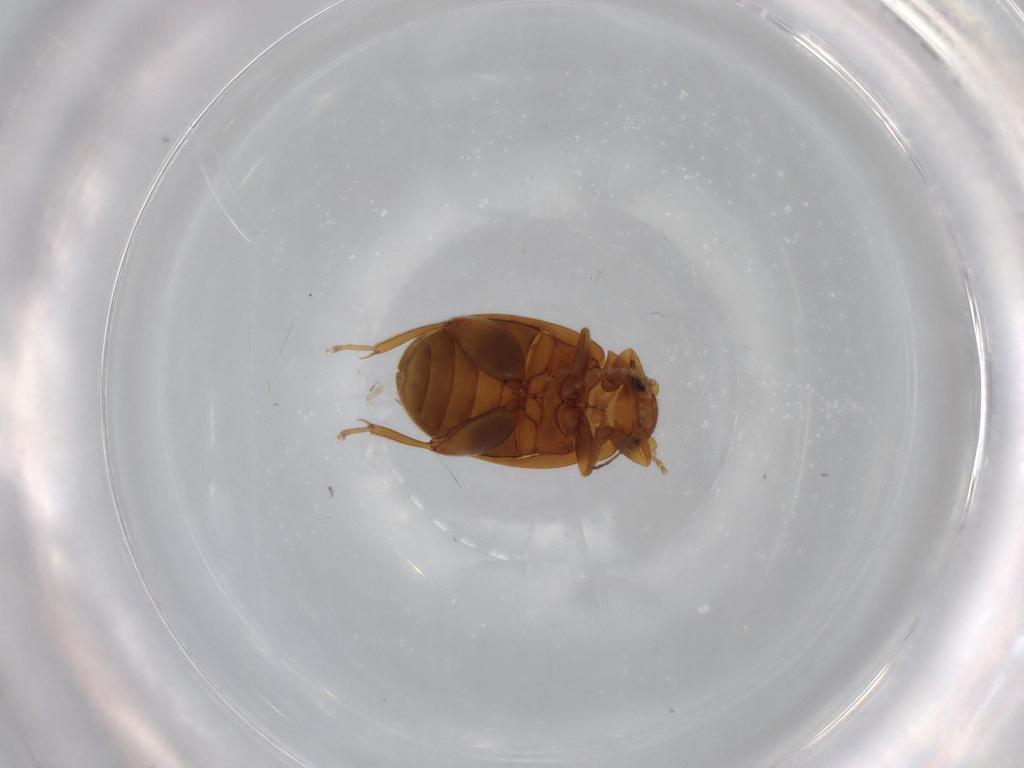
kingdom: Animalia
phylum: Arthropoda
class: Insecta
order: Coleoptera
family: Scirtidae
